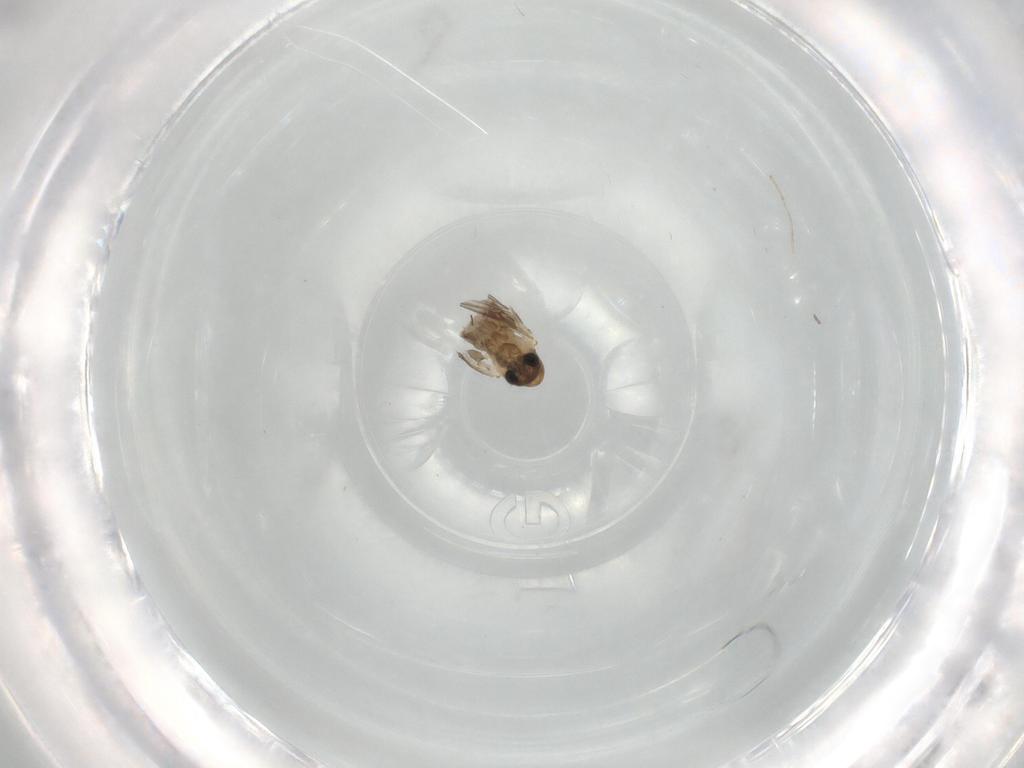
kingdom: Animalia
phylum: Arthropoda
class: Insecta
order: Diptera
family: Psychodidae
